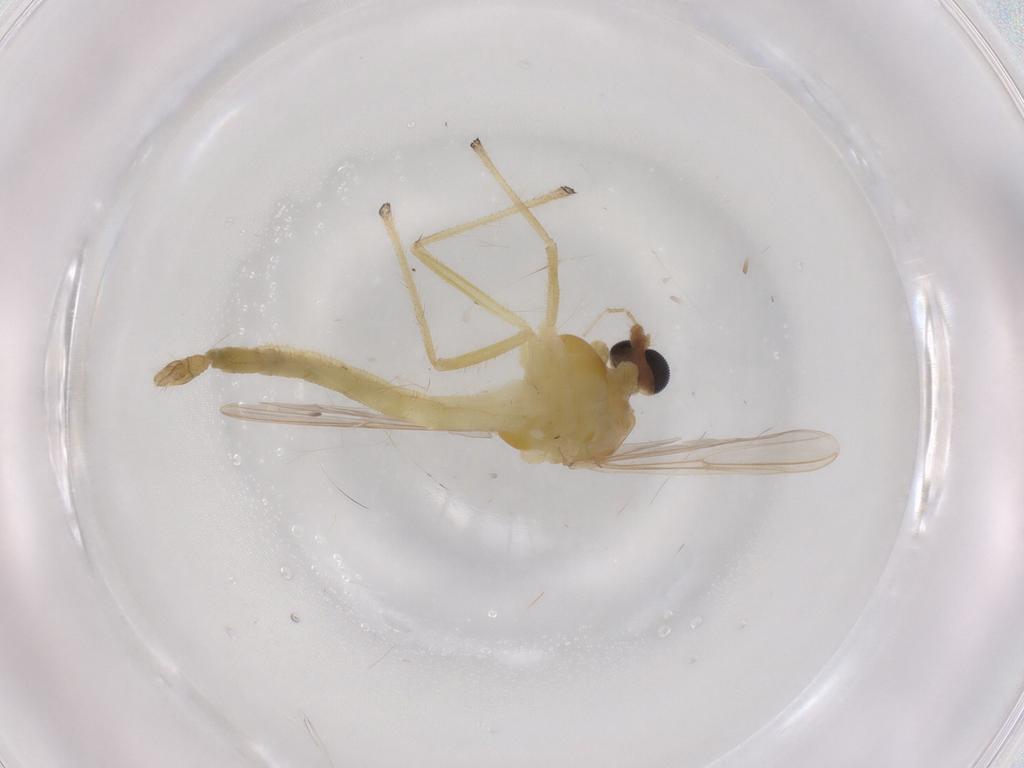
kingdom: Animalia
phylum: Arthropoda
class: Insecta
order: Diptera
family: Chironomidae
